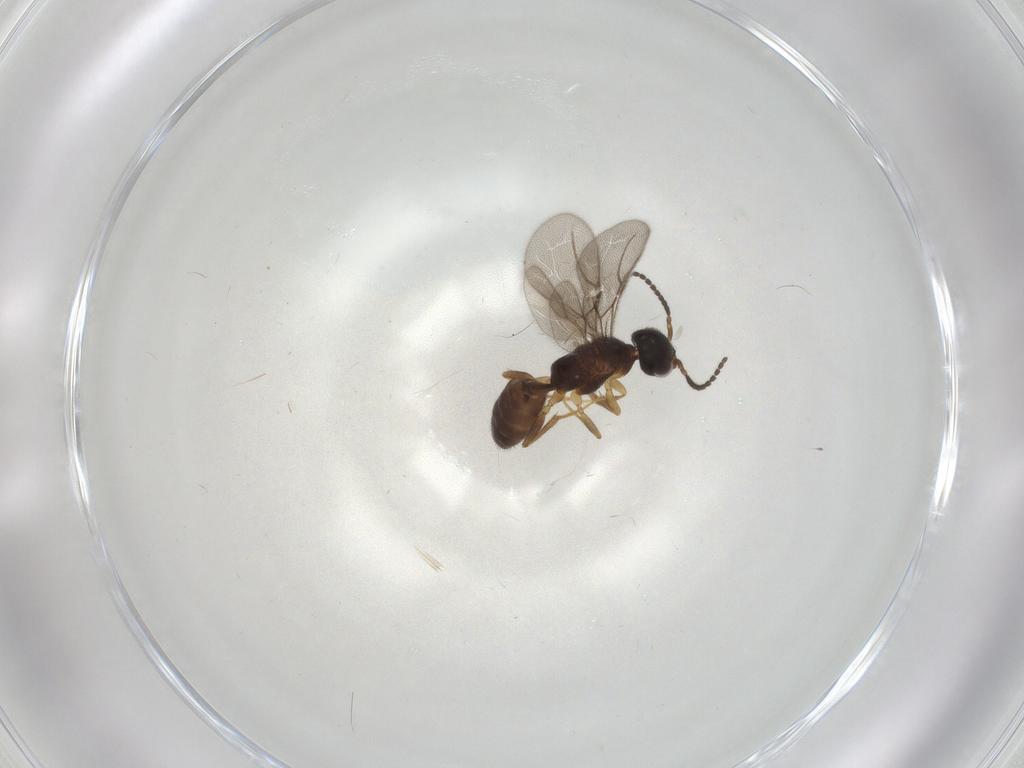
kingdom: Animalia
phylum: Arthropoda
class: Insecta
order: Hymenoptera
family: Bethylidae
